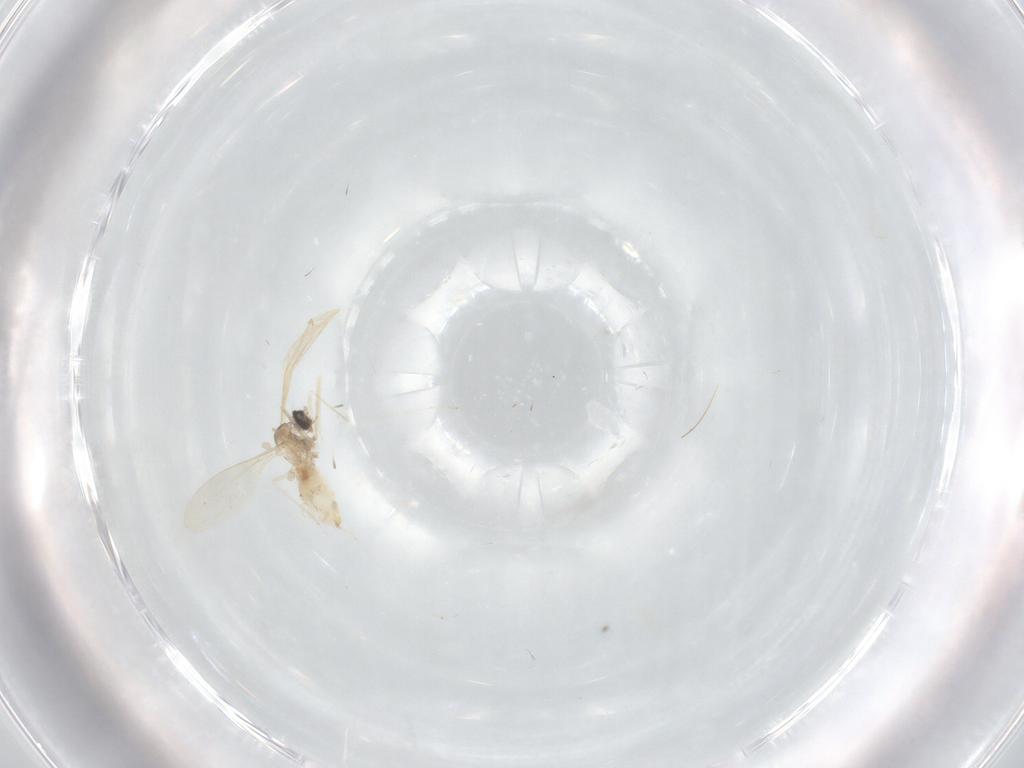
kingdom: Animalia
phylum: Arthropoda
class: Insecta
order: Diptera
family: Cecidomyiidae
